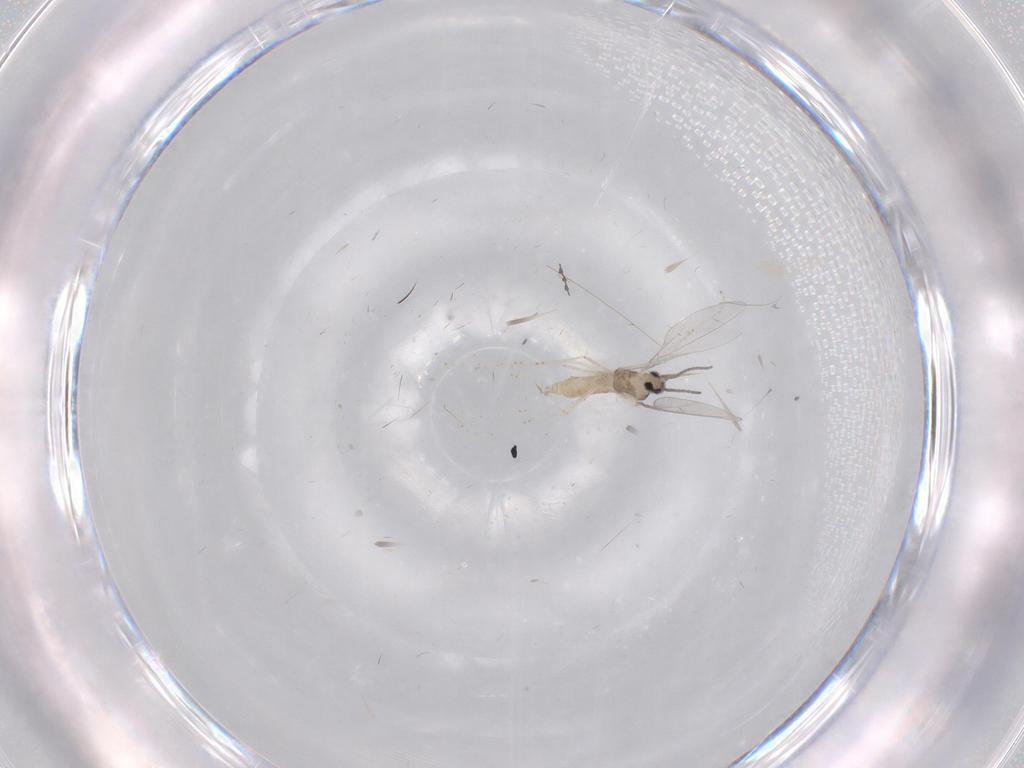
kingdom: Animalia
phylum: Arthropoda
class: Insecta
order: Diptera
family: Cecidomyiidae
